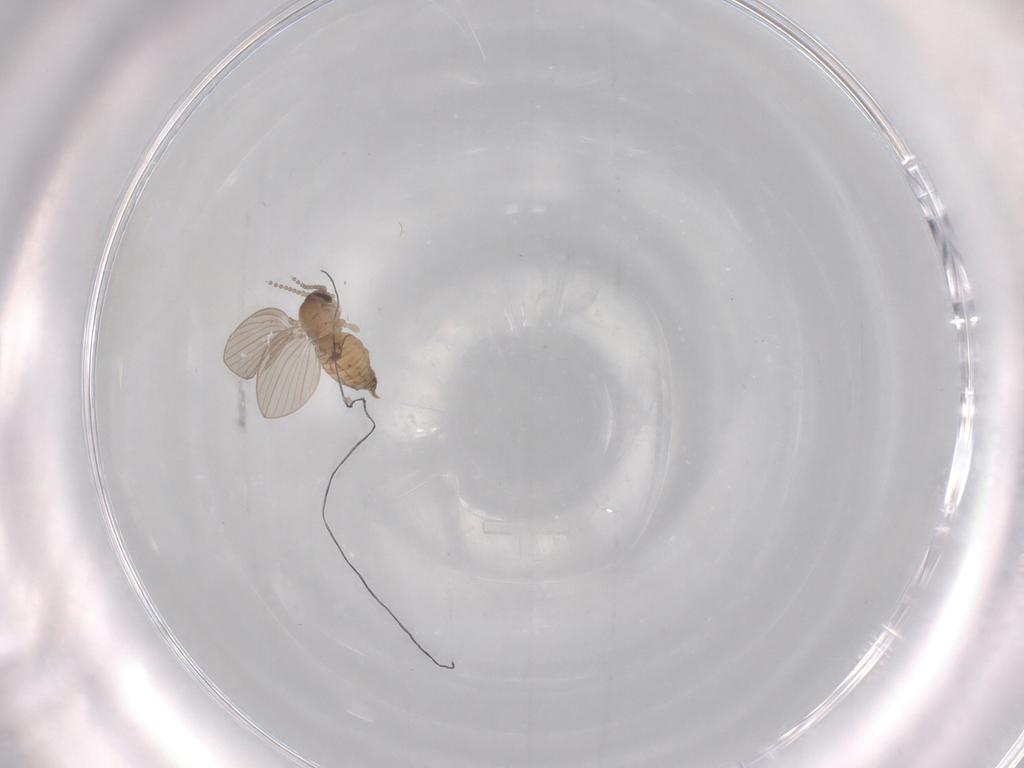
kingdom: Animalia
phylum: Arthropoda
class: Insecta
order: Diptera
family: Psychodidae
